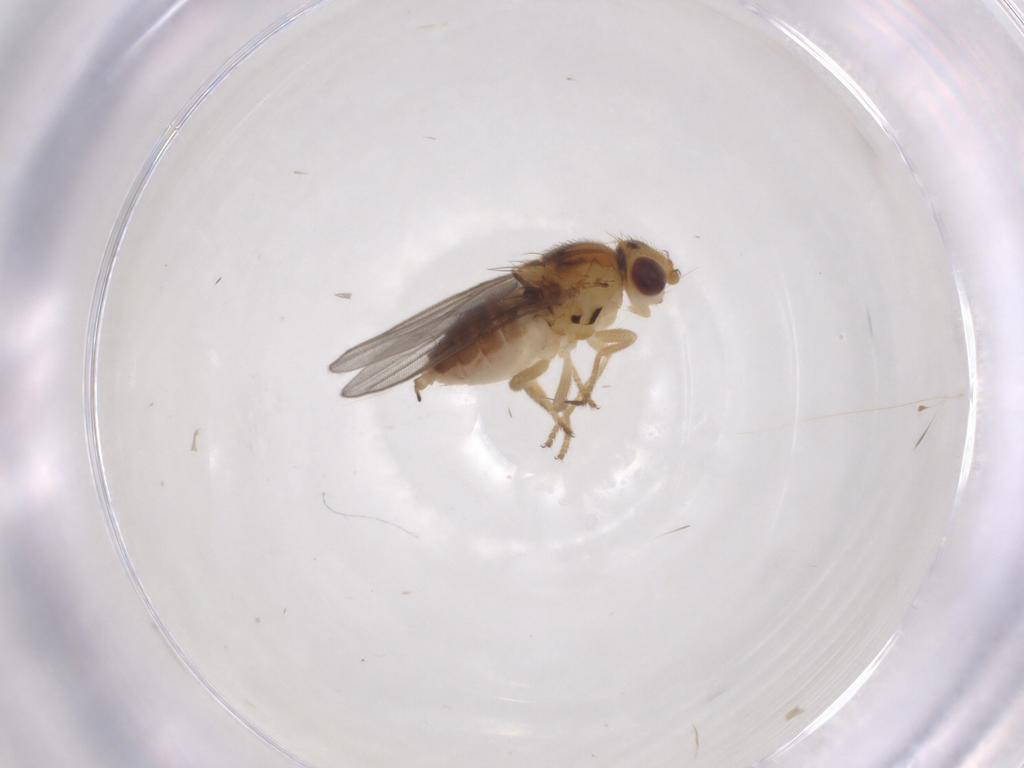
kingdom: Animalia
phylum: Arthropoda
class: Insecta
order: Diptera
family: Chloropidae
